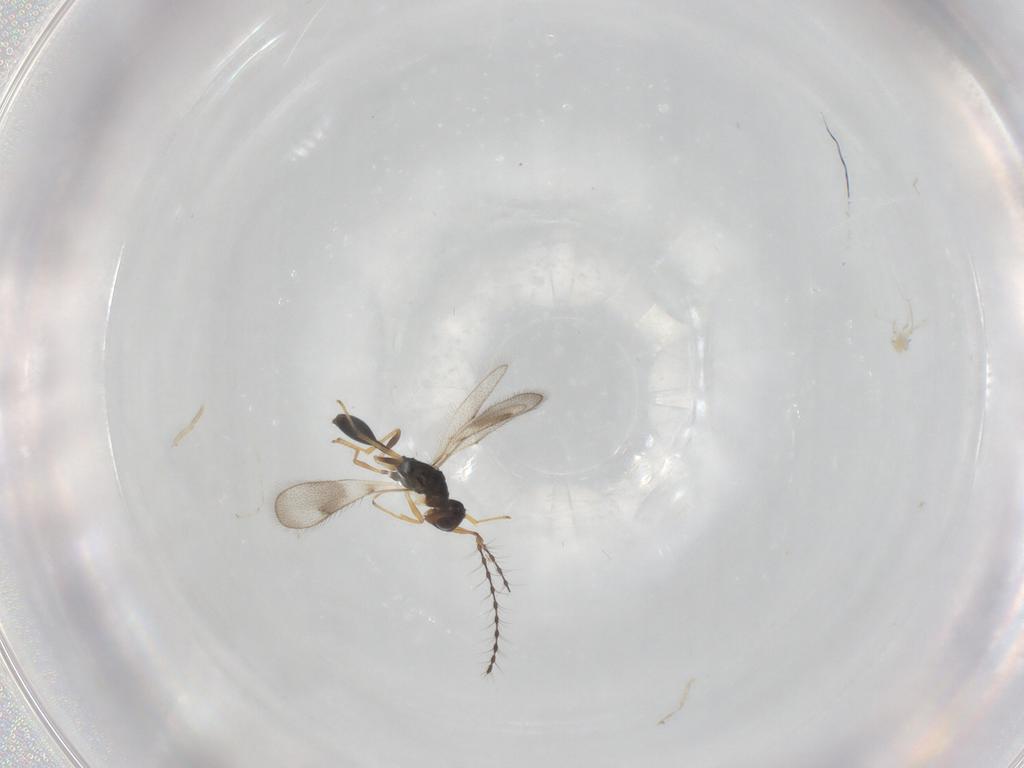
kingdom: Animalia
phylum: Arthropoda
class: Insecta
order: Hymenoptera
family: Diparidae
